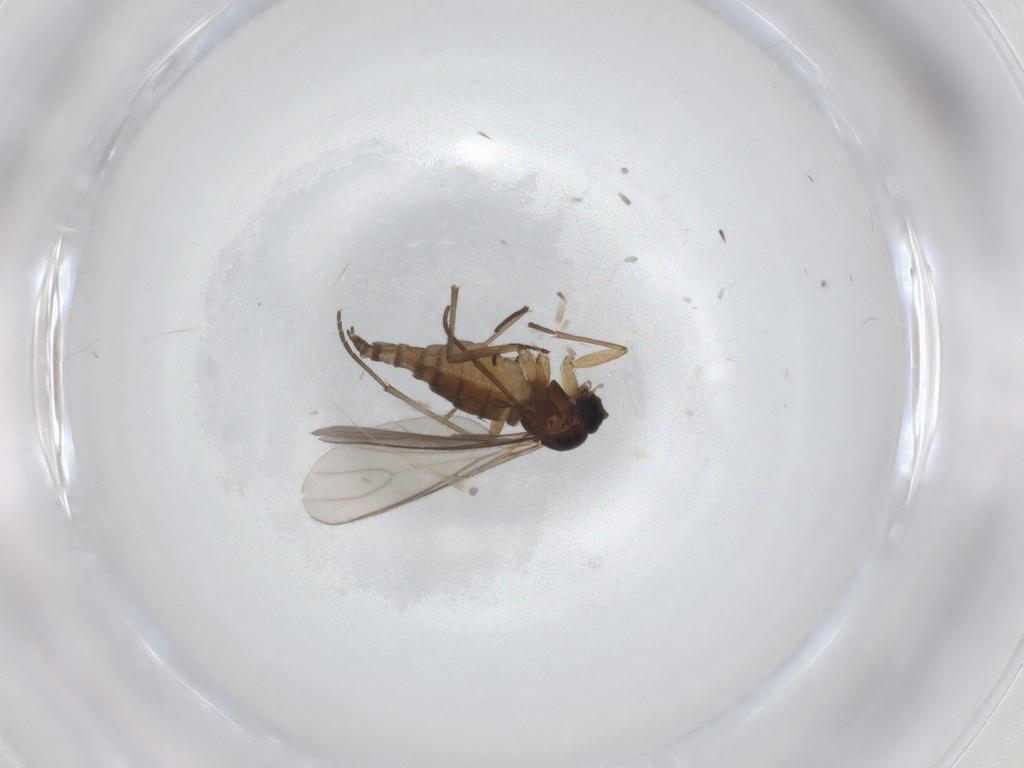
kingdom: Animalia
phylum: Arthropoda
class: Insecta
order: Diptera
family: Sciaridae
